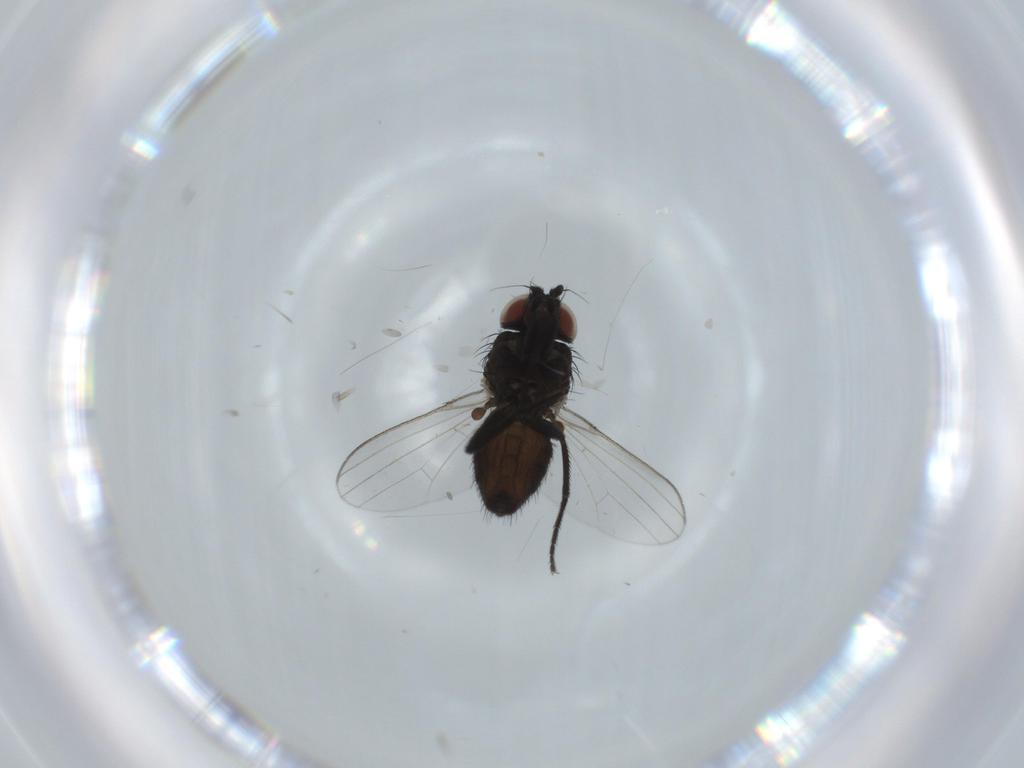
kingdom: Animalia
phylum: Arthropoda
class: Insecta
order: Diptera
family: Milichiidae
